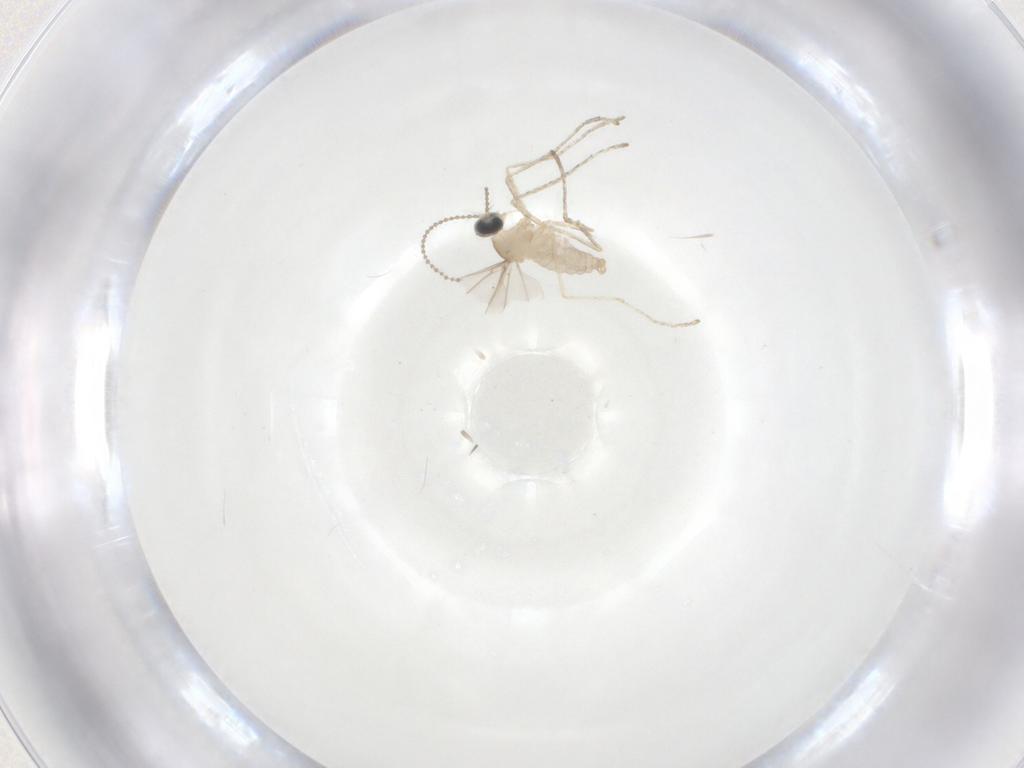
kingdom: Animalia
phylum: Arthropoda
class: Insecta
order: Diptera
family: Cecidomyiidae
